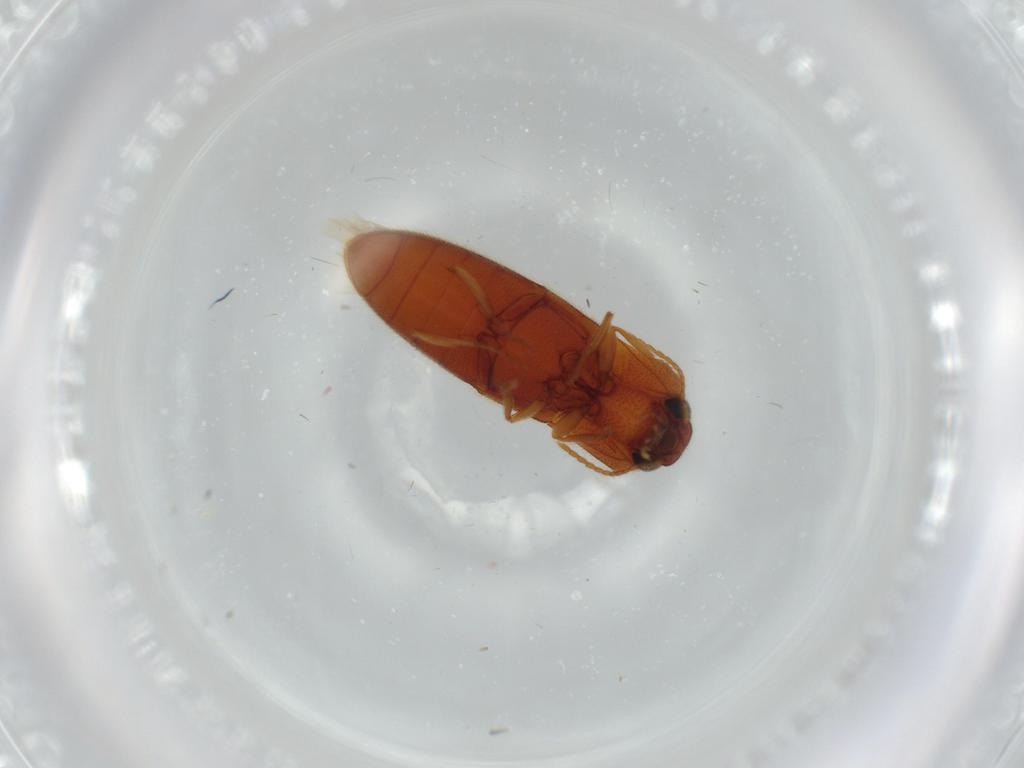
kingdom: Animalia
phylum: Arthropoda
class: Insecta
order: Coleoptera
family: Elateridae
